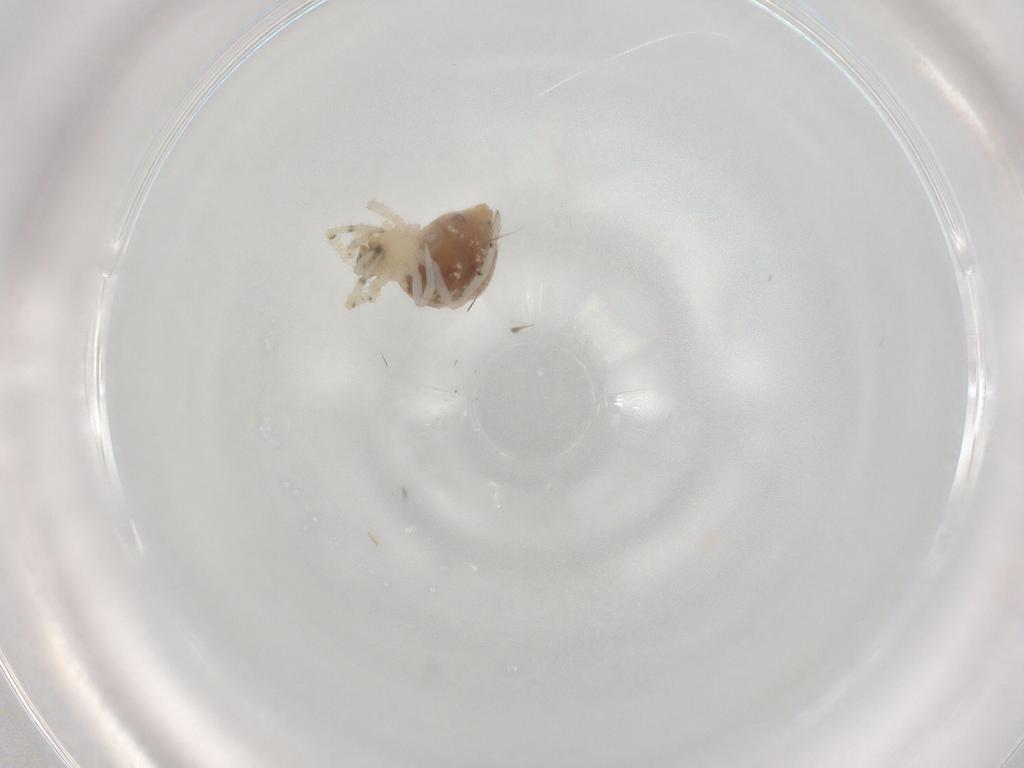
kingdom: Animalia
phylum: Arthropoda
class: Arachnida
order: Araneae
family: Theridiidae
